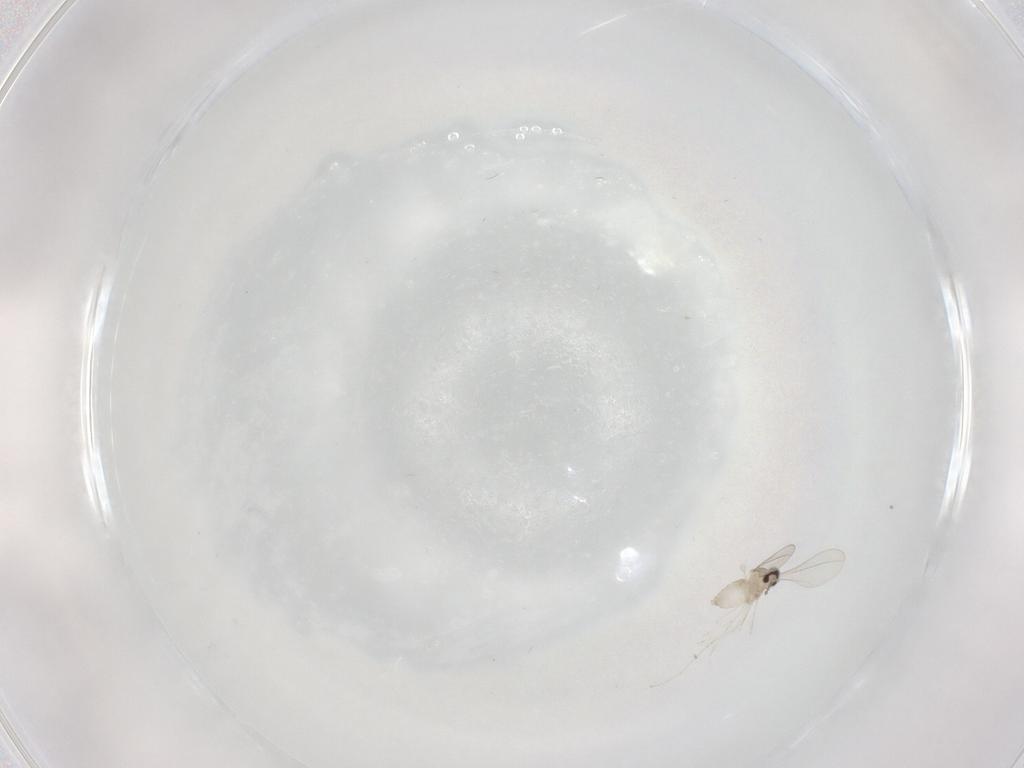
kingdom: Animalia
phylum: Arthropoda
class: Insecta
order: Diptera
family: Cecidomyiidae
